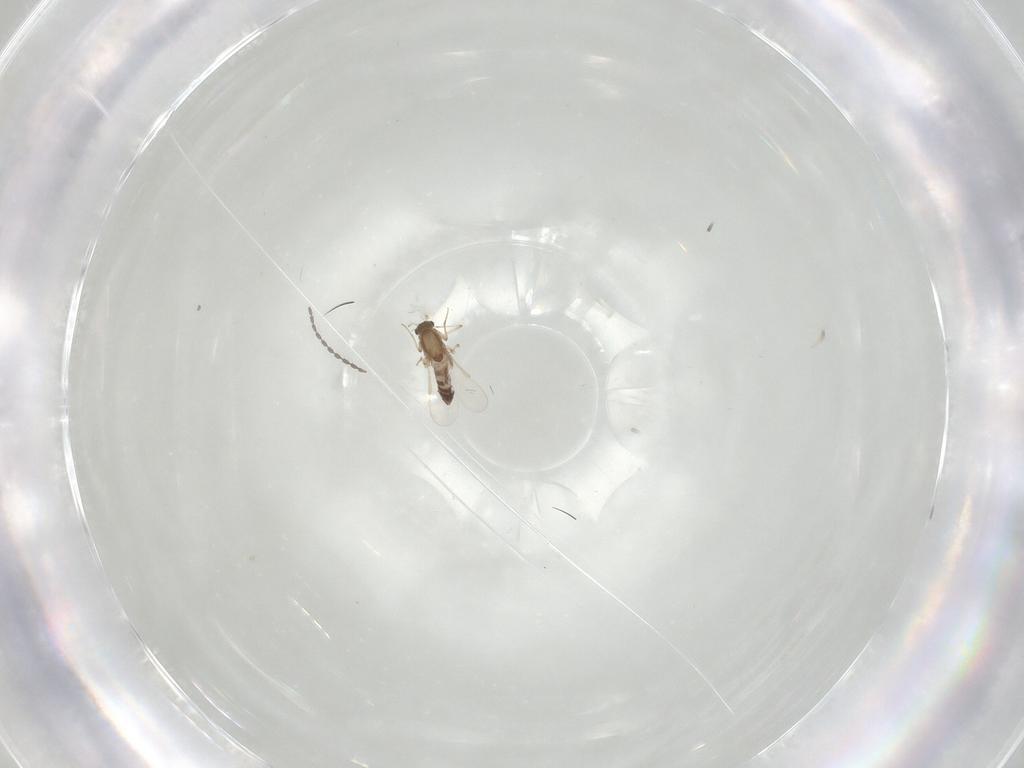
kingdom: Animalia
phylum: Arthropoda
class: Insecta
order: Diptera
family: Chironomidae
